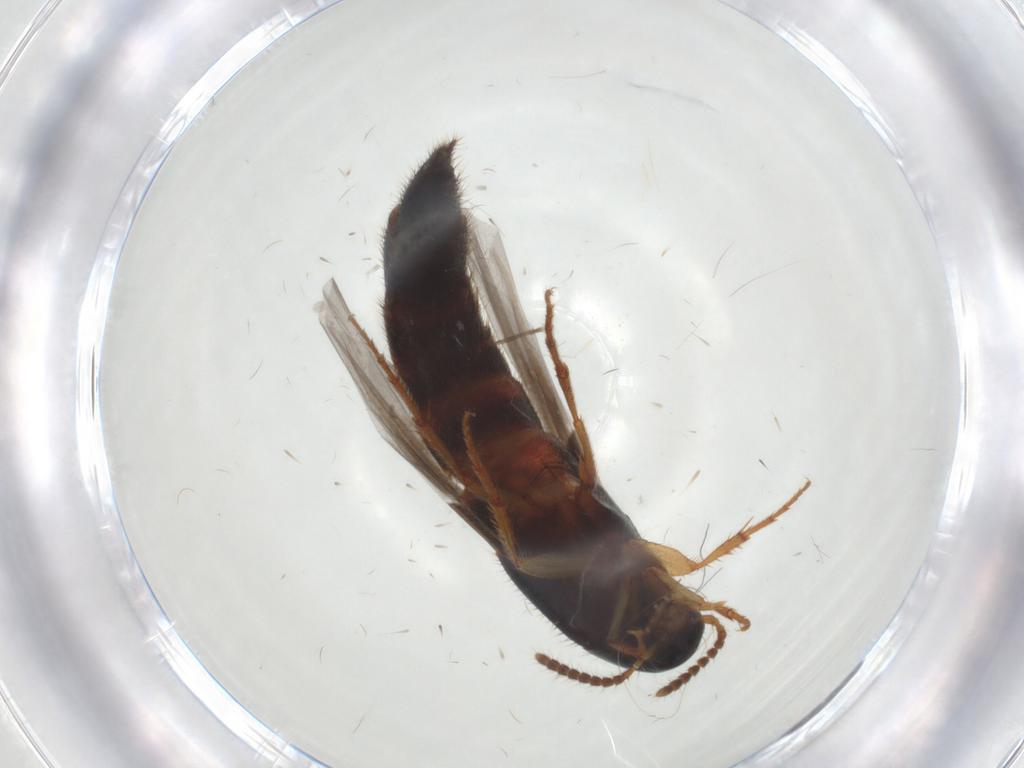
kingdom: Animalia
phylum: Arthropoda
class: Insecta
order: Coleoptera
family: Staphylinidae
